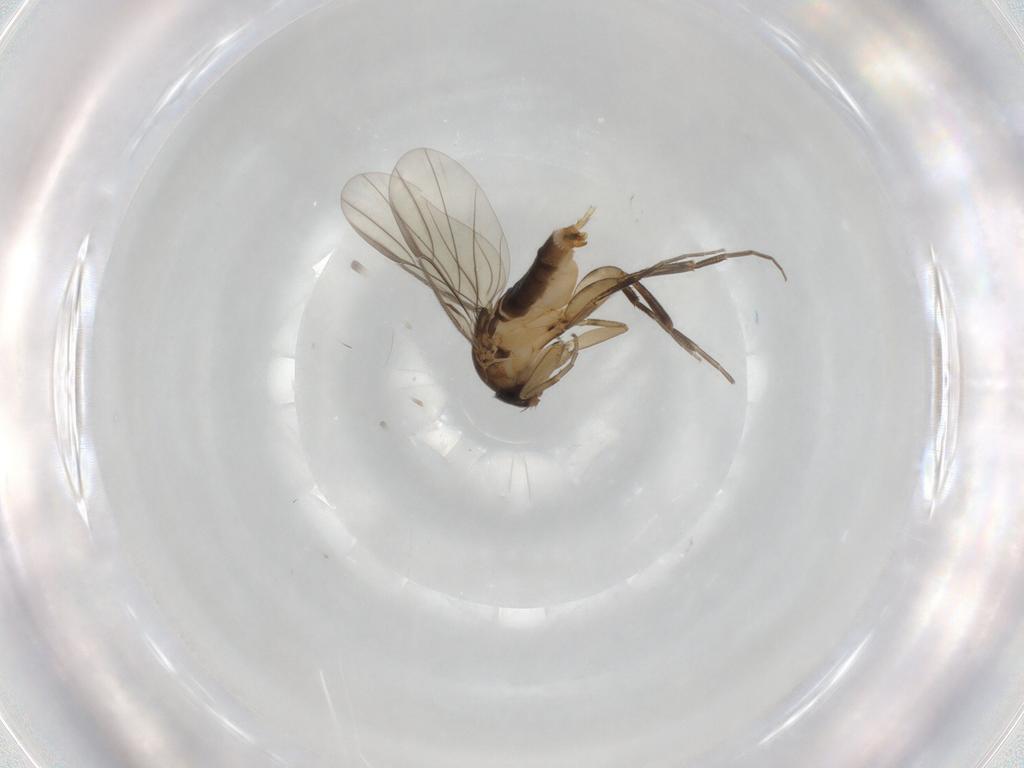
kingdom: Animalia
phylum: Arthropoda
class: Insecta
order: Diptera
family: Phoridae
